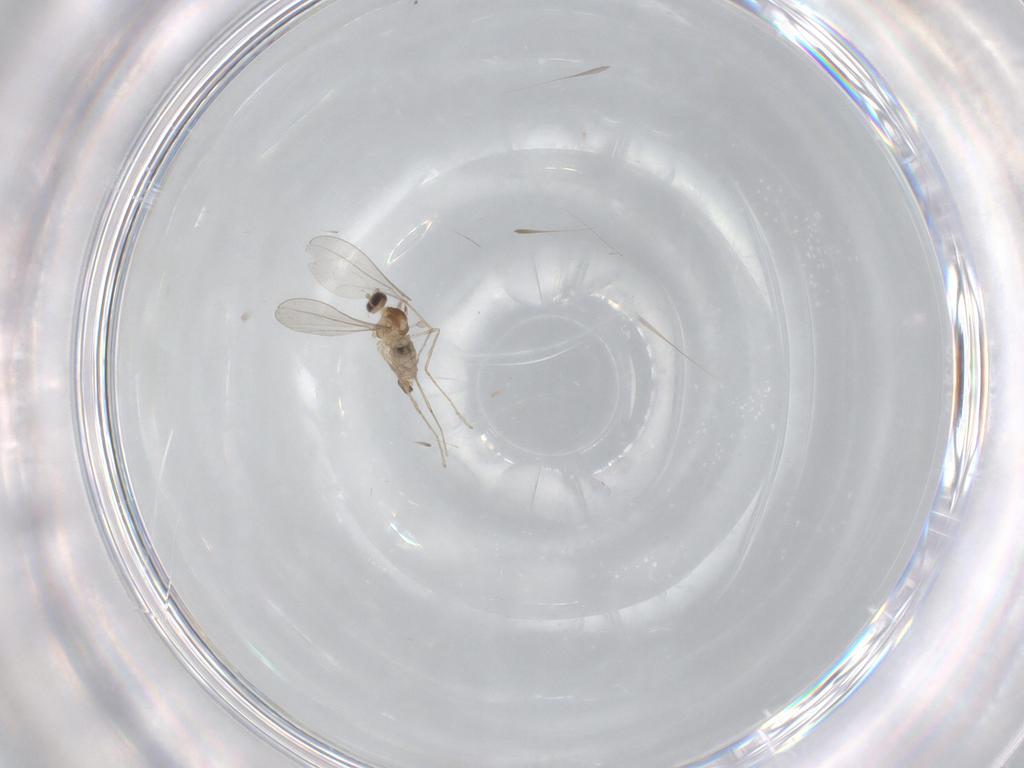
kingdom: Animalia
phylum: Arthropoda
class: Insecta
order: Diptera
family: Cecidomyiidae
